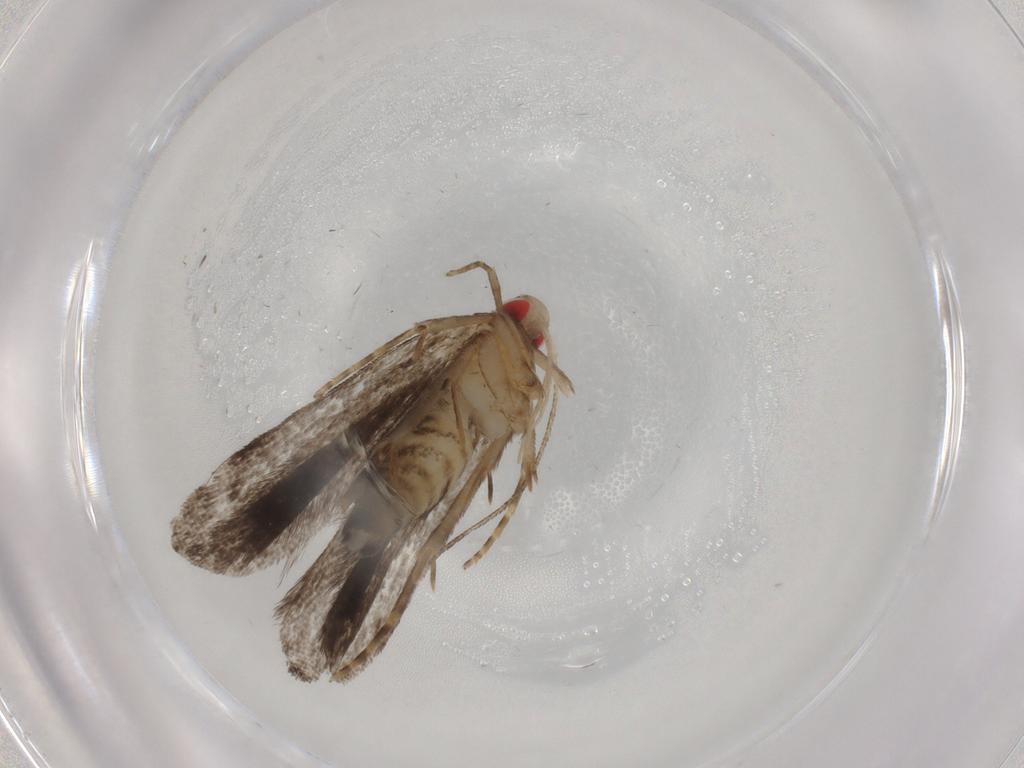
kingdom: Animalia
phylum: Arthropoda
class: Insecta
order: Lepidoptera
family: Gelechiidae
